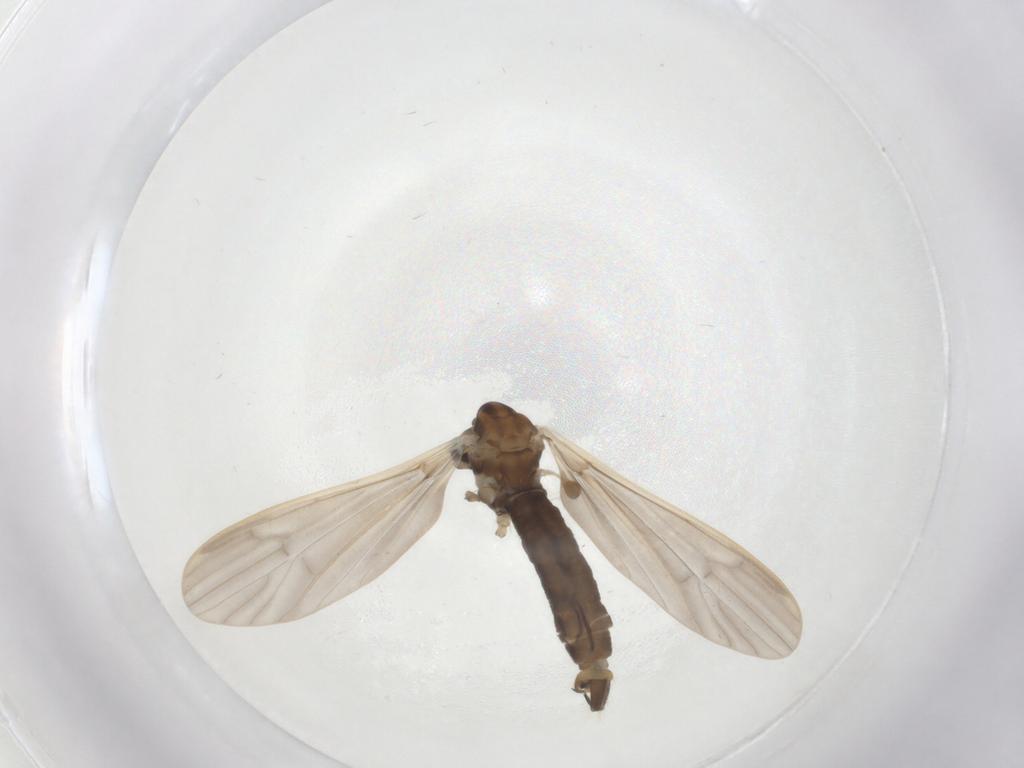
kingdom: Animalia
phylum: Arthropoda
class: Insecta
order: Diptera
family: Limoniidae
